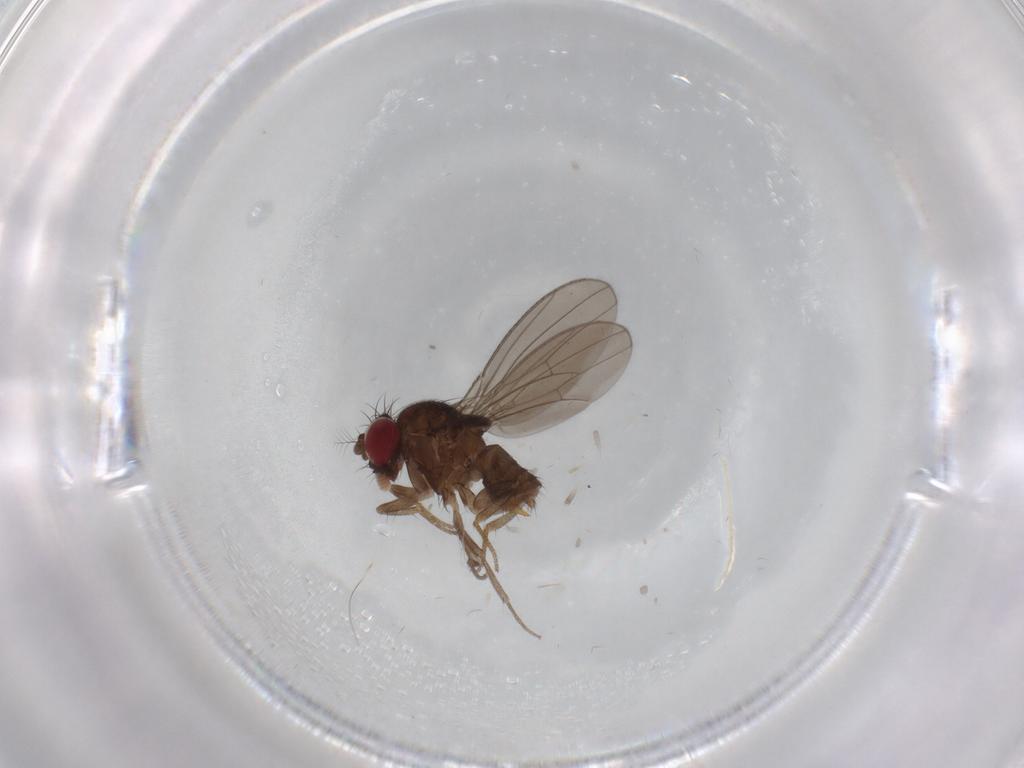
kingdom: Animalia
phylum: Arthropoda
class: Insecta
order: Diptera
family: Drosophilidae
